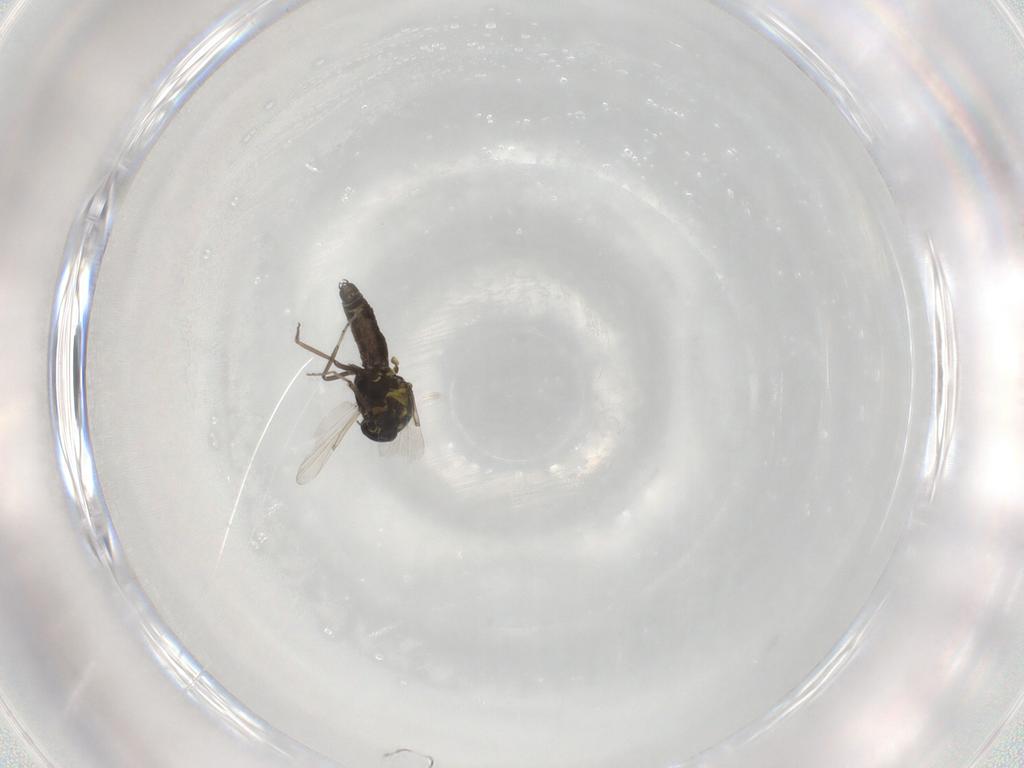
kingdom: Animalia
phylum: Arthropoda
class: Insecta
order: Diptera
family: Ceratopogonidae
